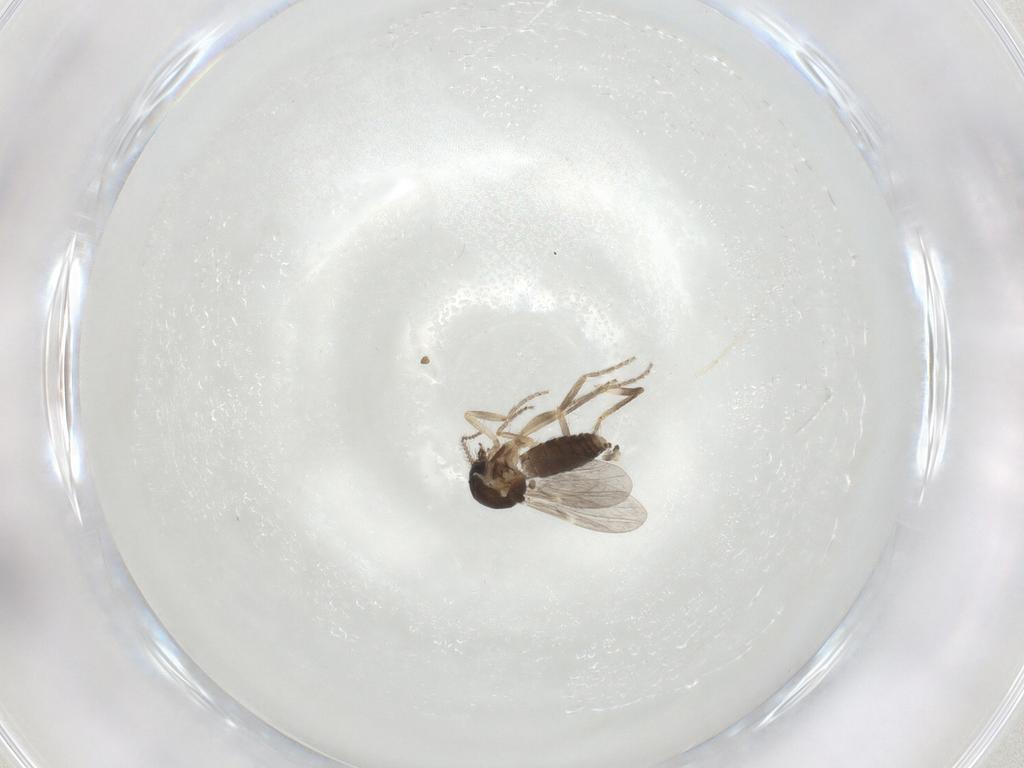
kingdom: Animalia
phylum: Arthropoda
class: Insecta
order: Diptera
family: Ceratopogonidae
